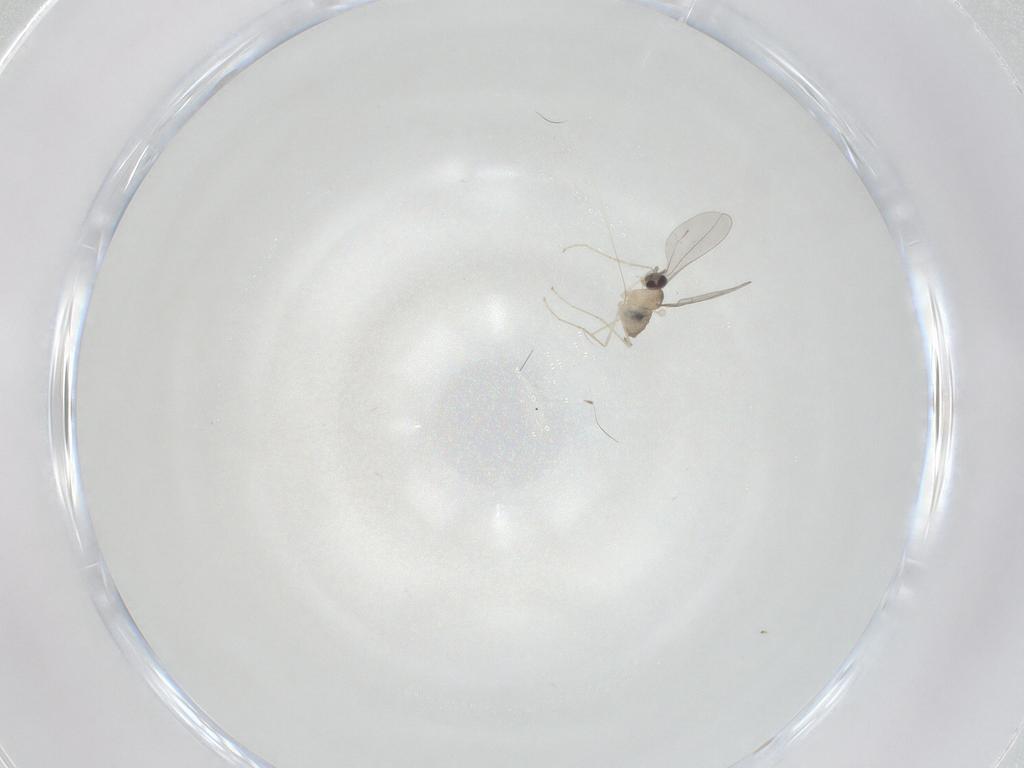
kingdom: Animalia
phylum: Arthropoda
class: Insecta
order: Diptera
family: Cecidomyiidae
